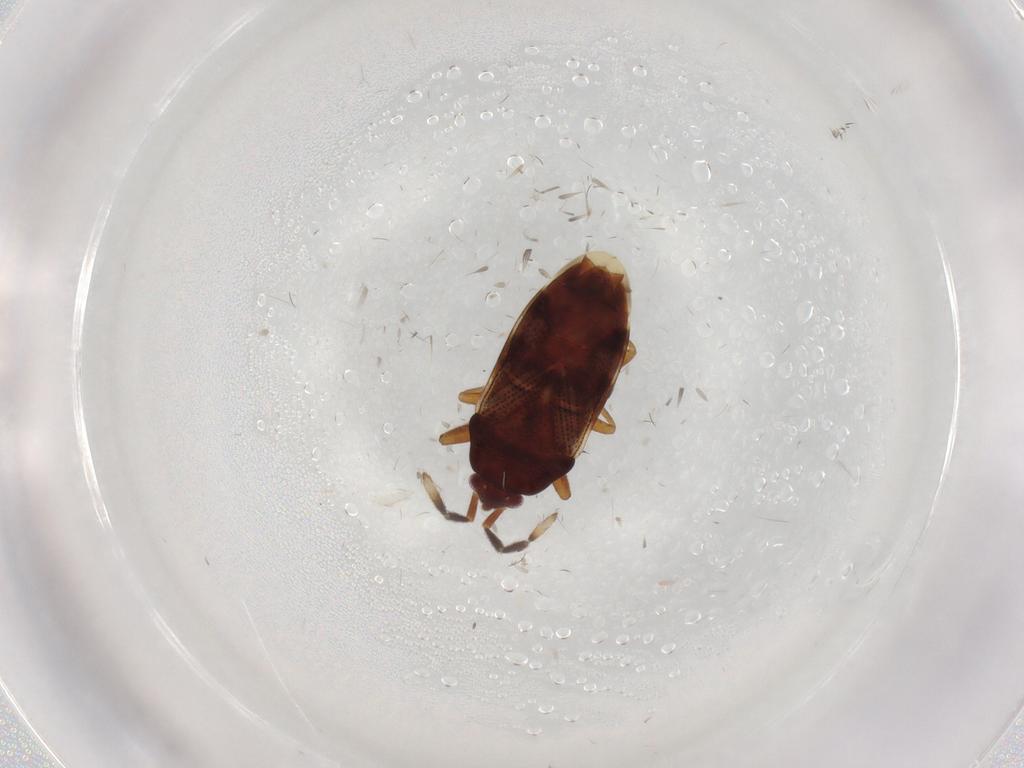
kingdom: Animalia
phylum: Arthropoda
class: Insecta
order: Hemiptera
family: Rhyparochromidae
